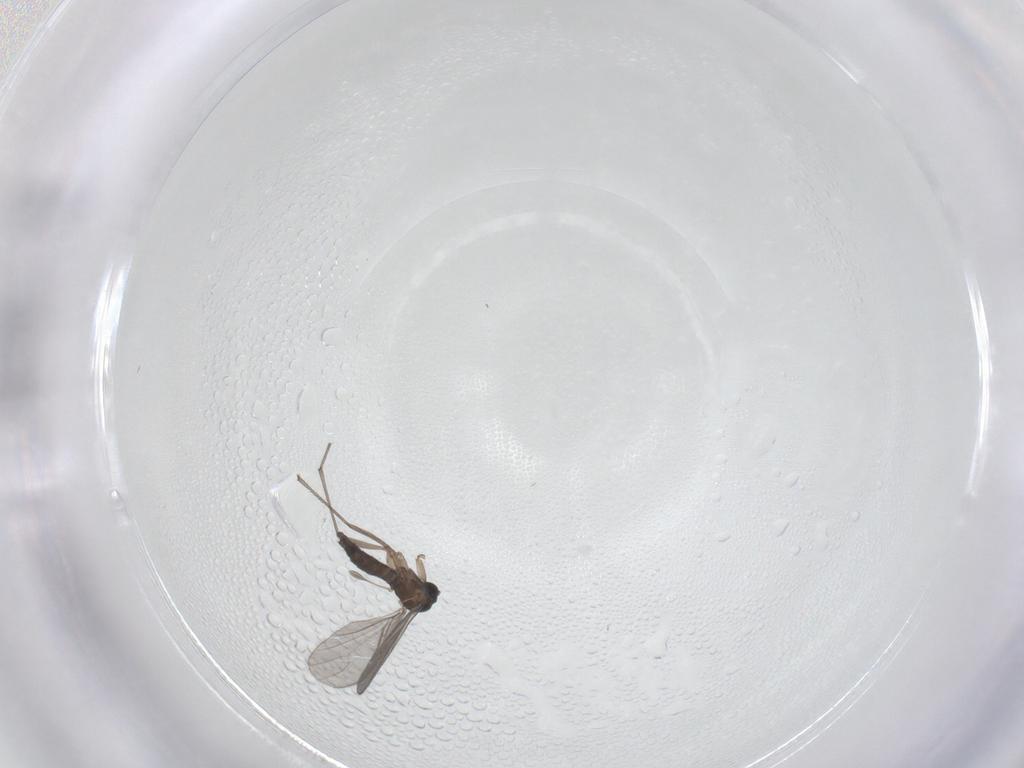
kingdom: Animalia
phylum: Arthropoda
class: Insecta
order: Diptera
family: Sciaridae
